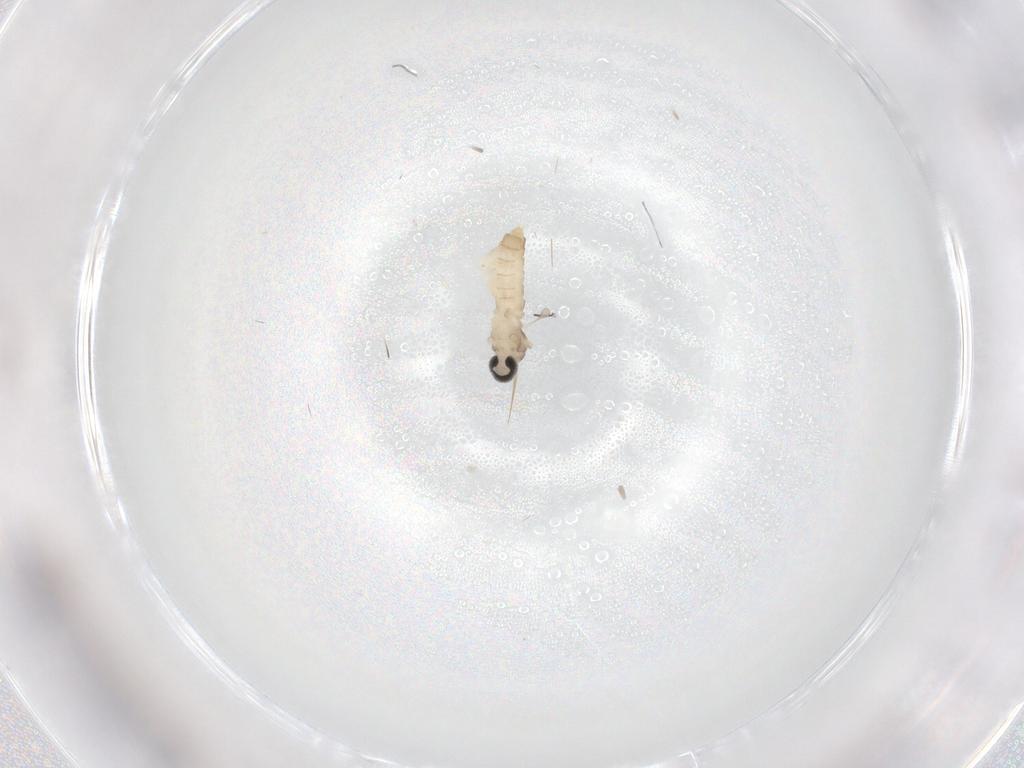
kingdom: Animalia
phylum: Arthropoda
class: Insecta
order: Diptera
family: Cecidomyiidae
